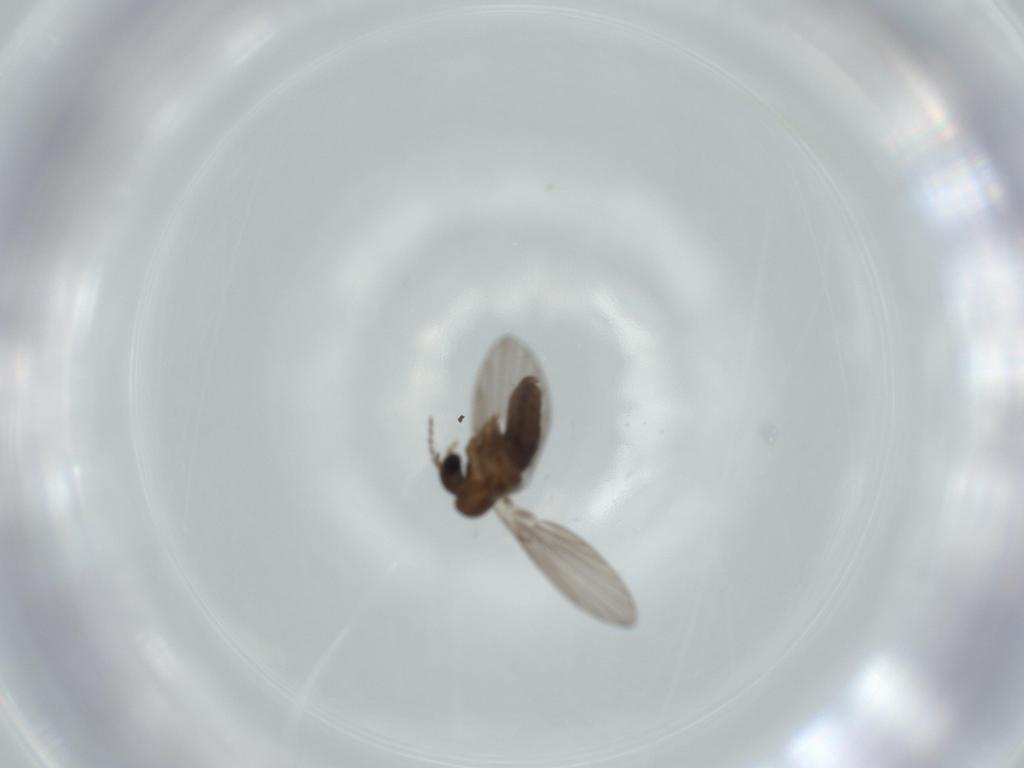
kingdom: Animalia
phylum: Arthropoda
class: Insecta
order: Diptera
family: Psychodidae
